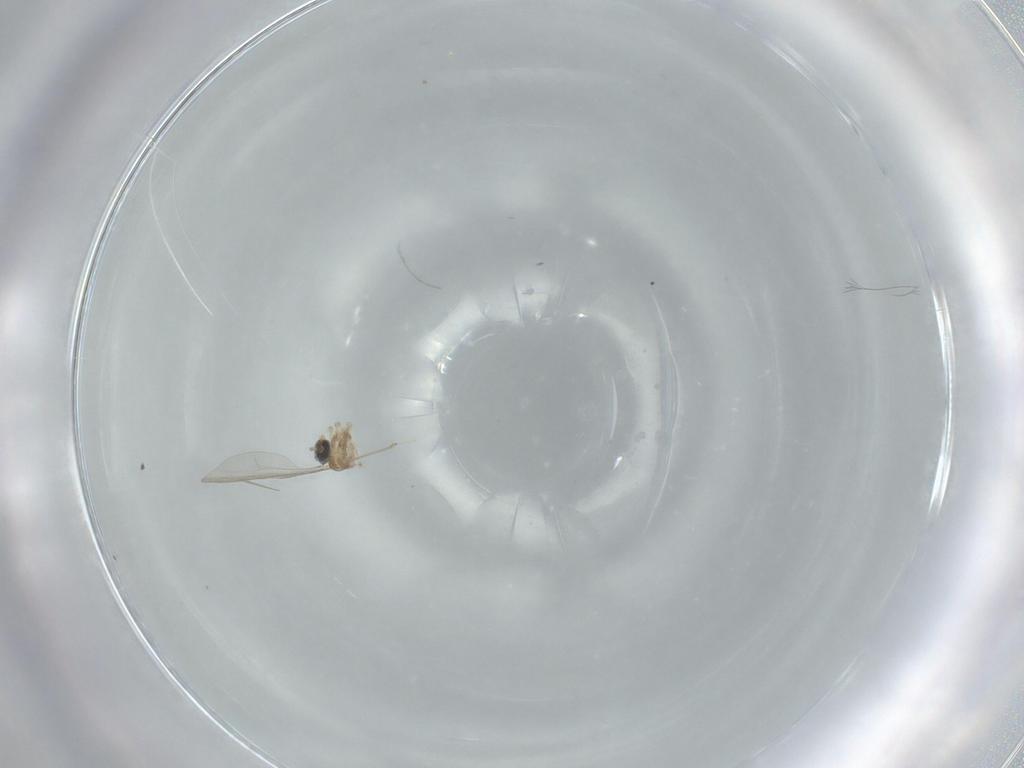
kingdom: Animalia
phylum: Arthropoda
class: Insecta
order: Diptera
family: Cecidomyiidae
